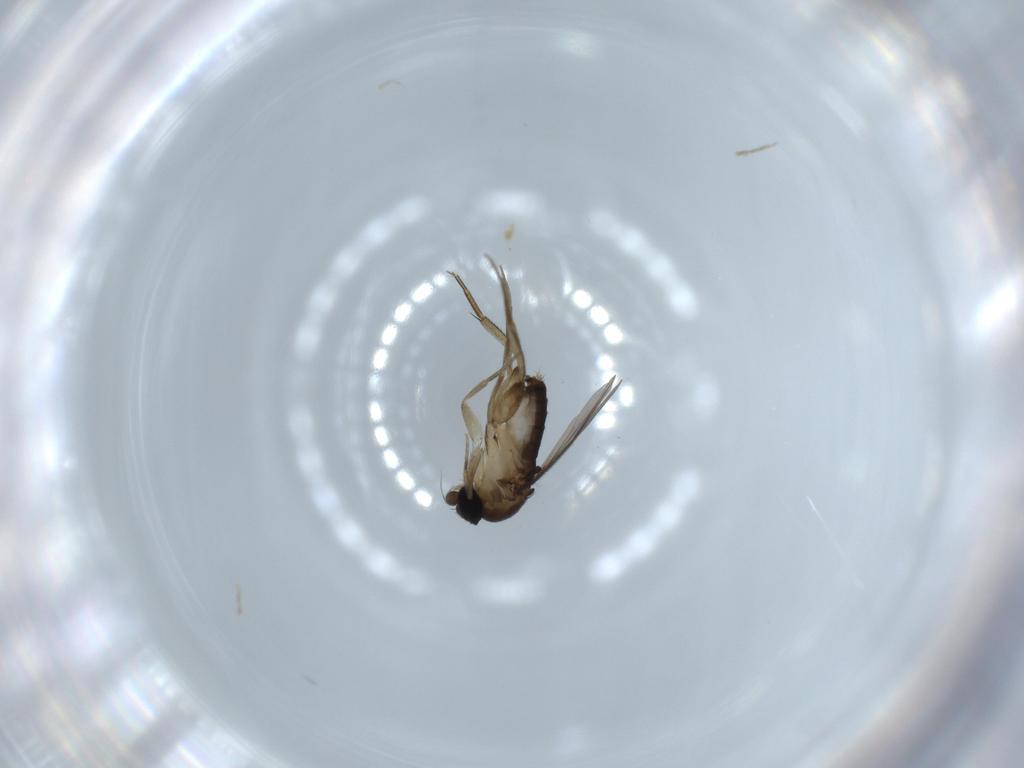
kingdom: Animalia
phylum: Arthropoda
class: Insecta
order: Diptera
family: Phoridae
